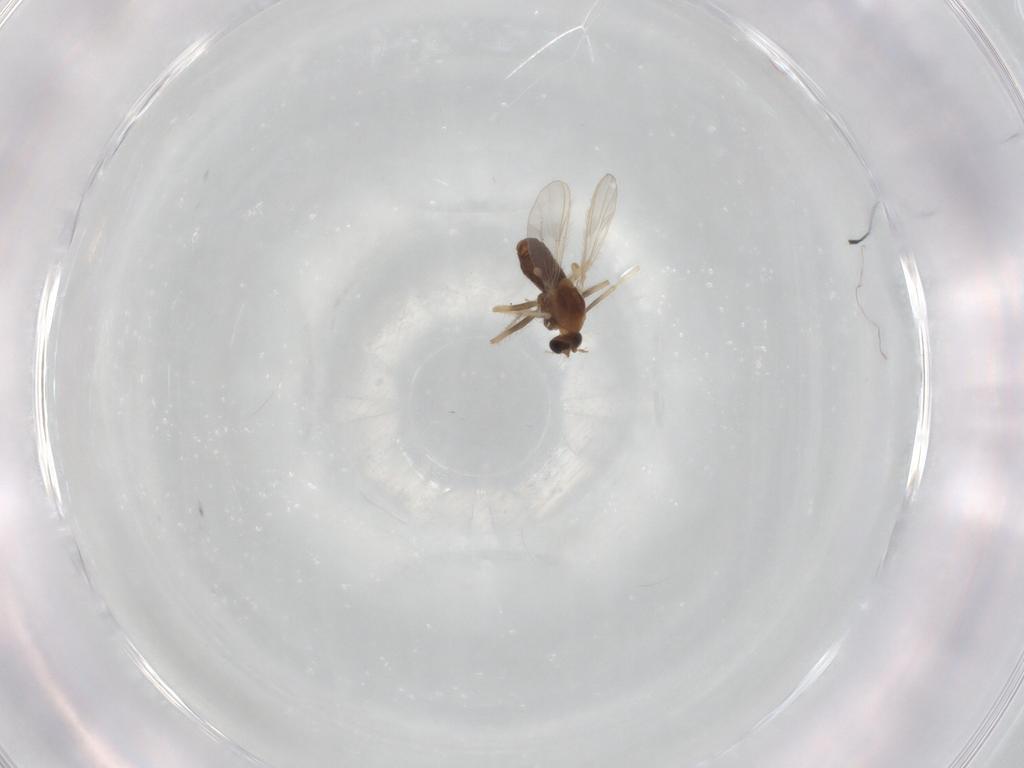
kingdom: Animalia
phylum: Arthropoda
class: Insecta
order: Diptera
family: Chironomidae
